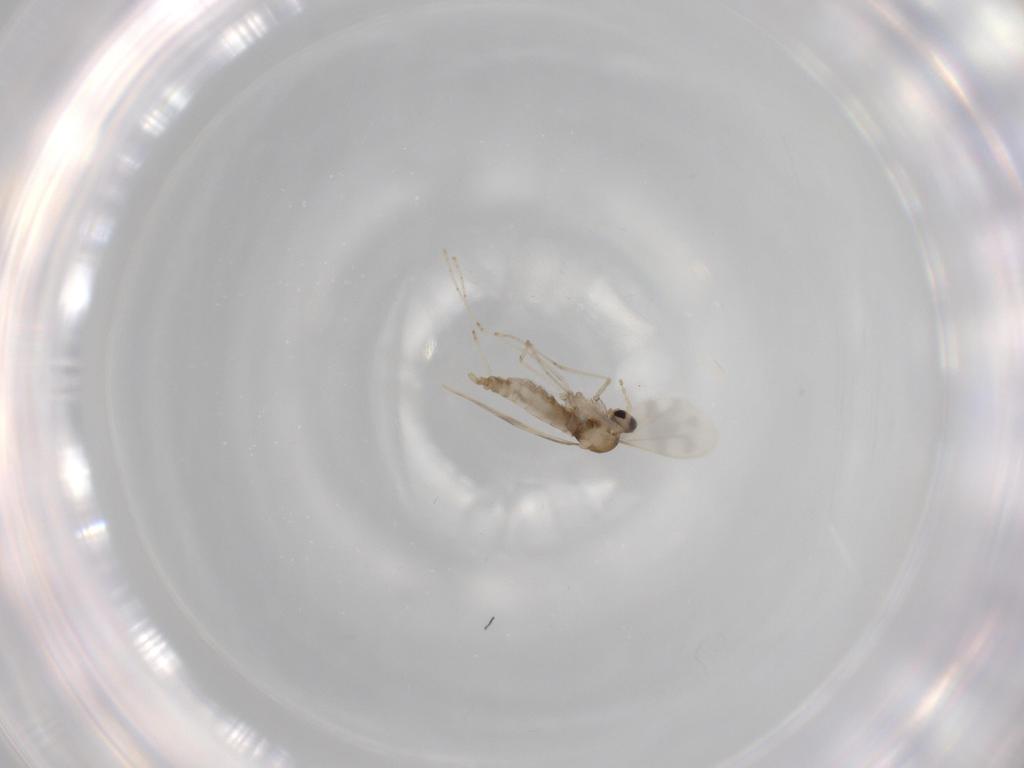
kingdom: Animalia
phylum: Arthropoda
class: Insecta
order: Diptera
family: Cecidomyiidae
